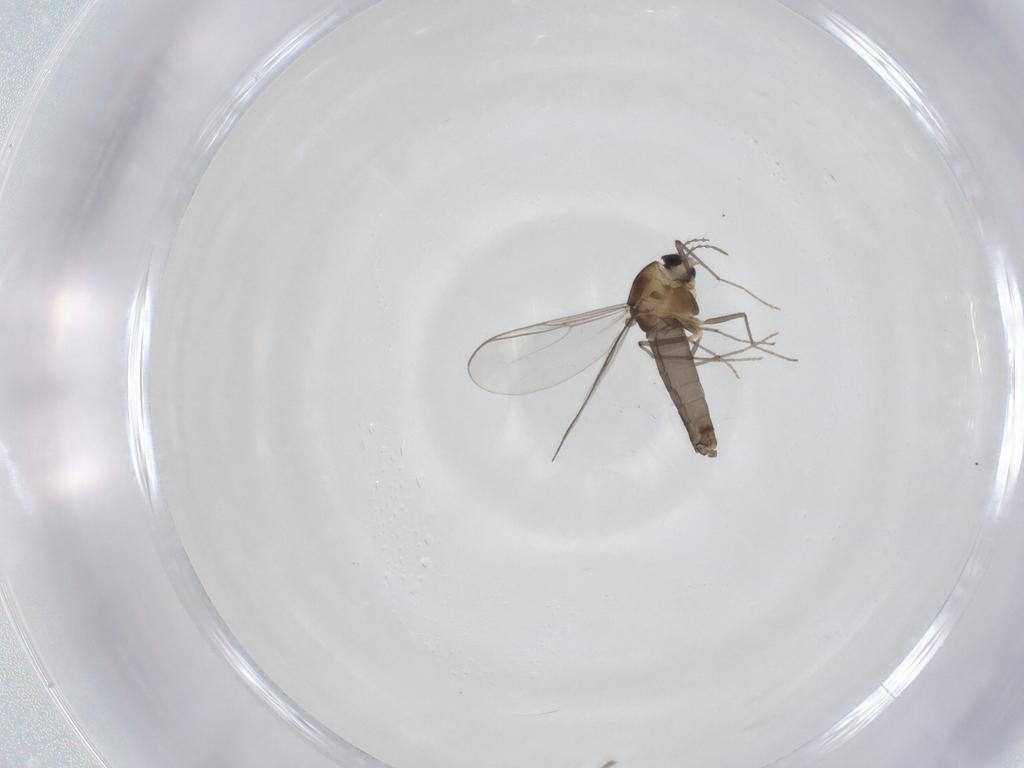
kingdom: Animalia
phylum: Arthropoda
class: Insecta
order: Diptera
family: Chironomidae
